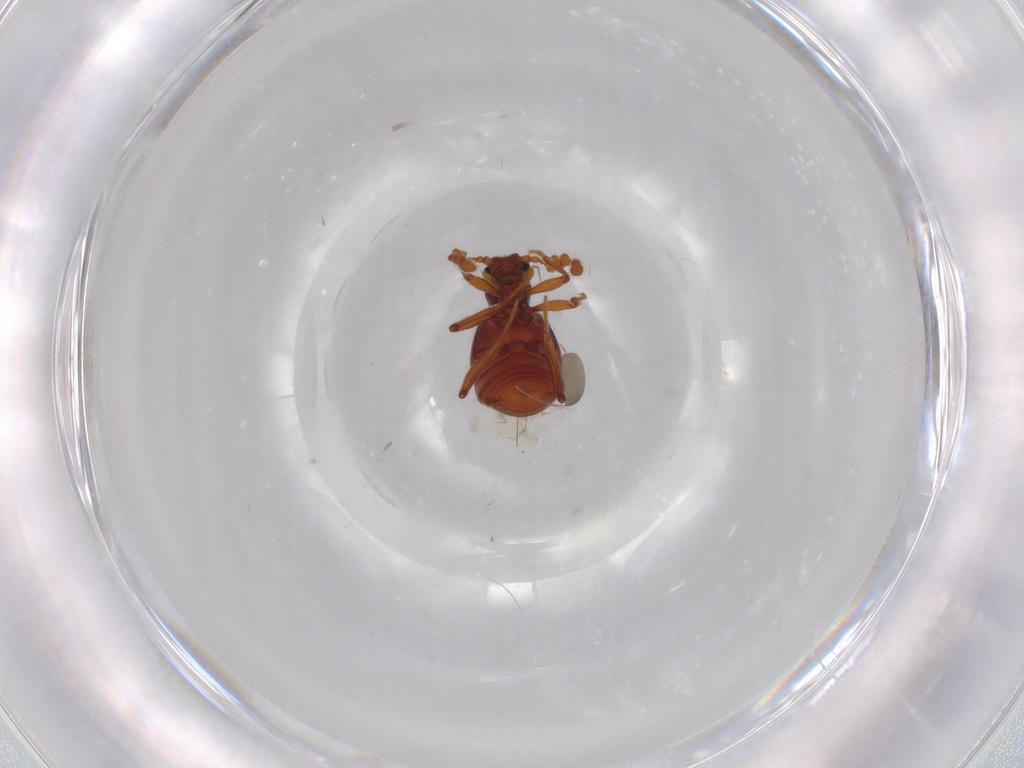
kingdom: Animalia
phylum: Arthropoda
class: Insecta
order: Coleoptera
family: Staphylinidae
